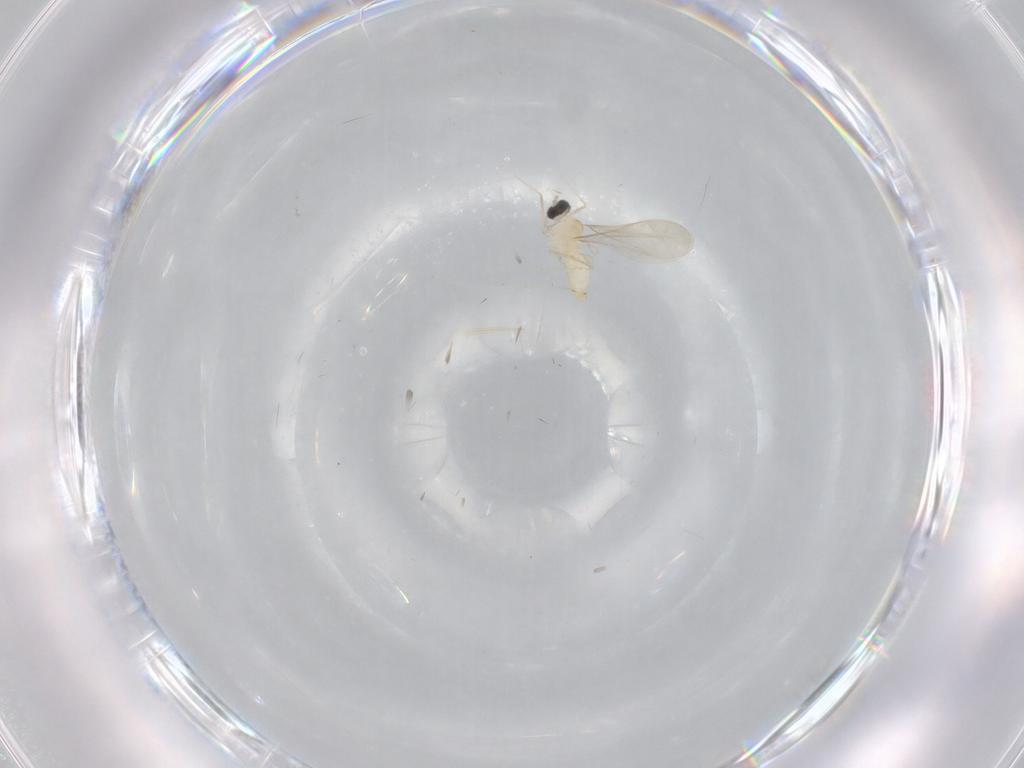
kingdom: Animalia
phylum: Arthropoda
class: Insecta
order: Diptera
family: Cecidomyiidae
